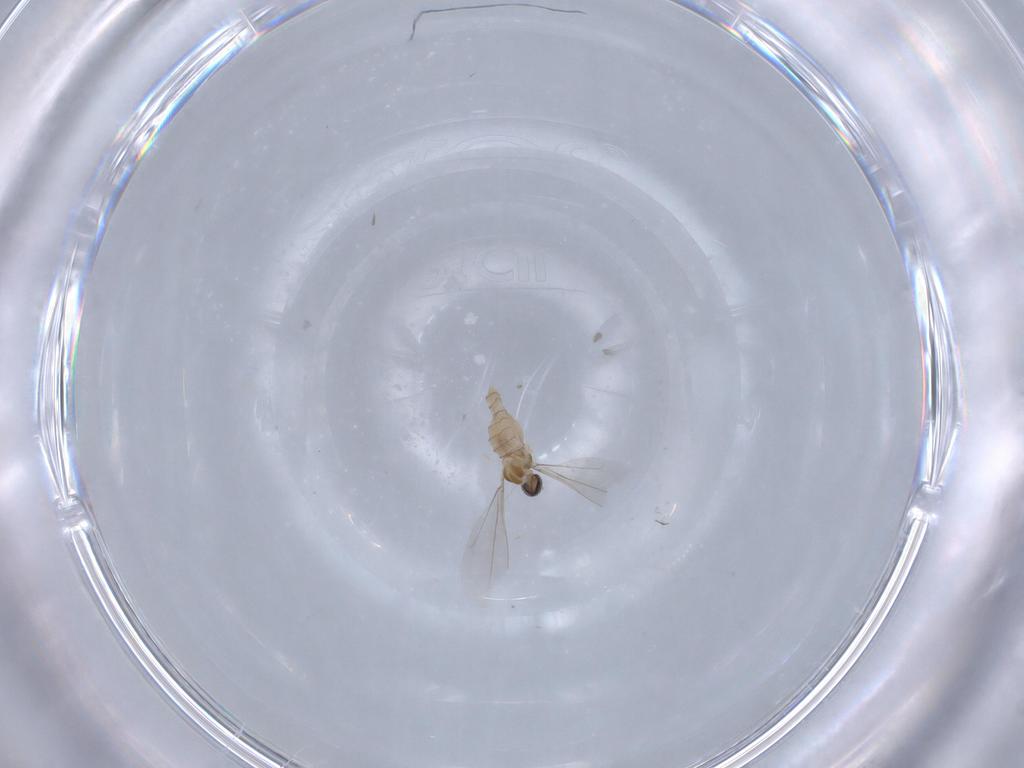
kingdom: Animalia
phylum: Arthropoda
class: Insecta
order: Diptera
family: Cecidomyiidae
